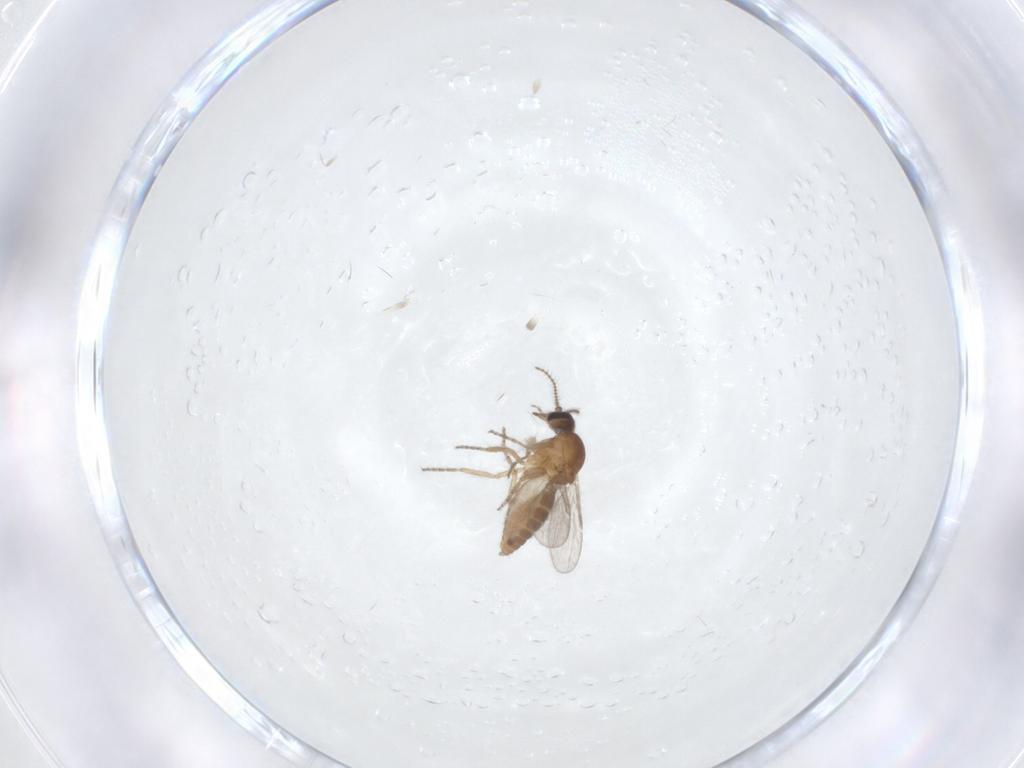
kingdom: Animalia
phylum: Arthropoda
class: Insecta
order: Diptera
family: Ceratopogonidae
